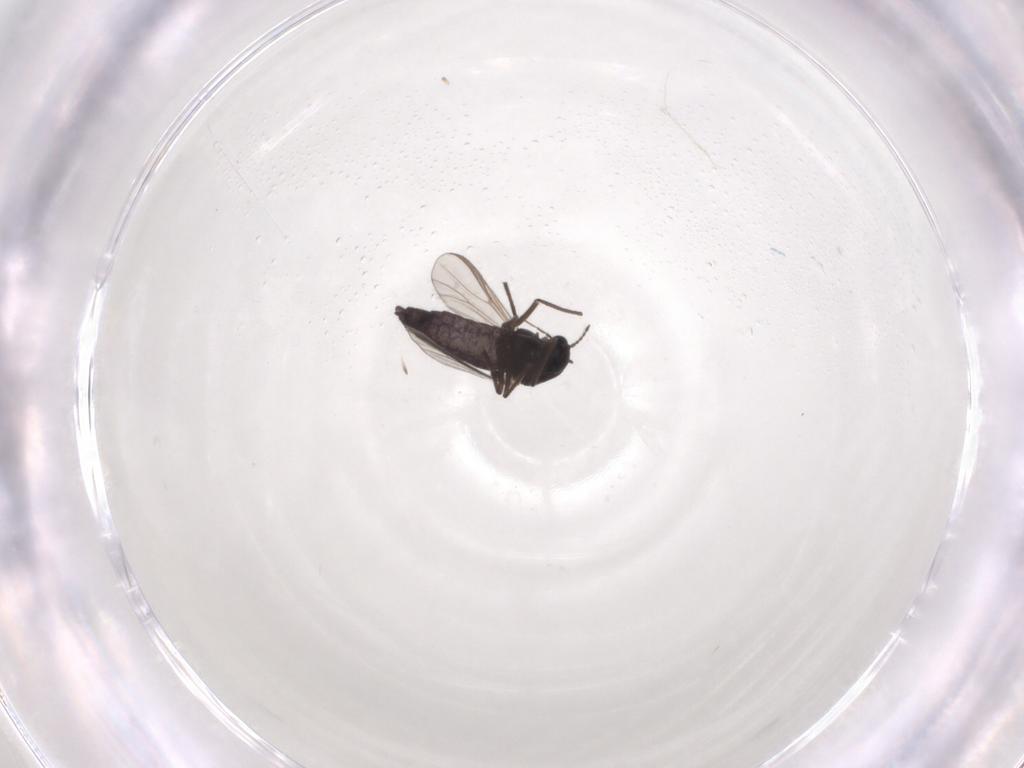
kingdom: Animalia
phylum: Arthropoda
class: Insecta
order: Diptera
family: Chironomidae
